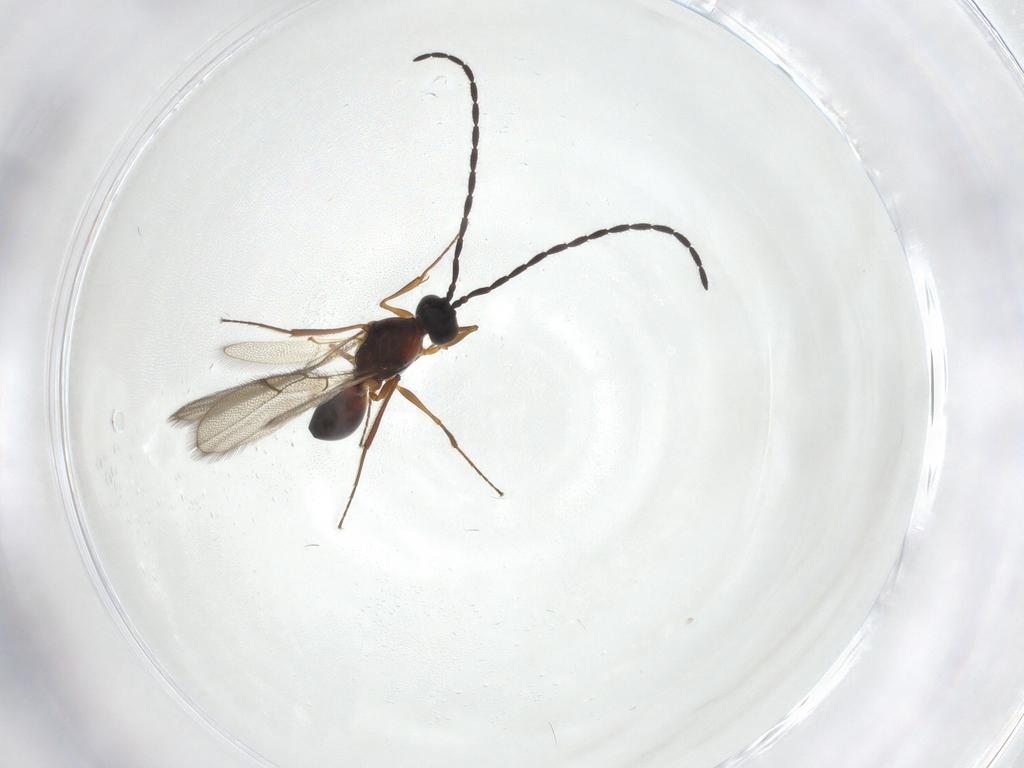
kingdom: Animalia
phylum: Arthropoda
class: Insecta
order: Hymenoptera
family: Figitidae
